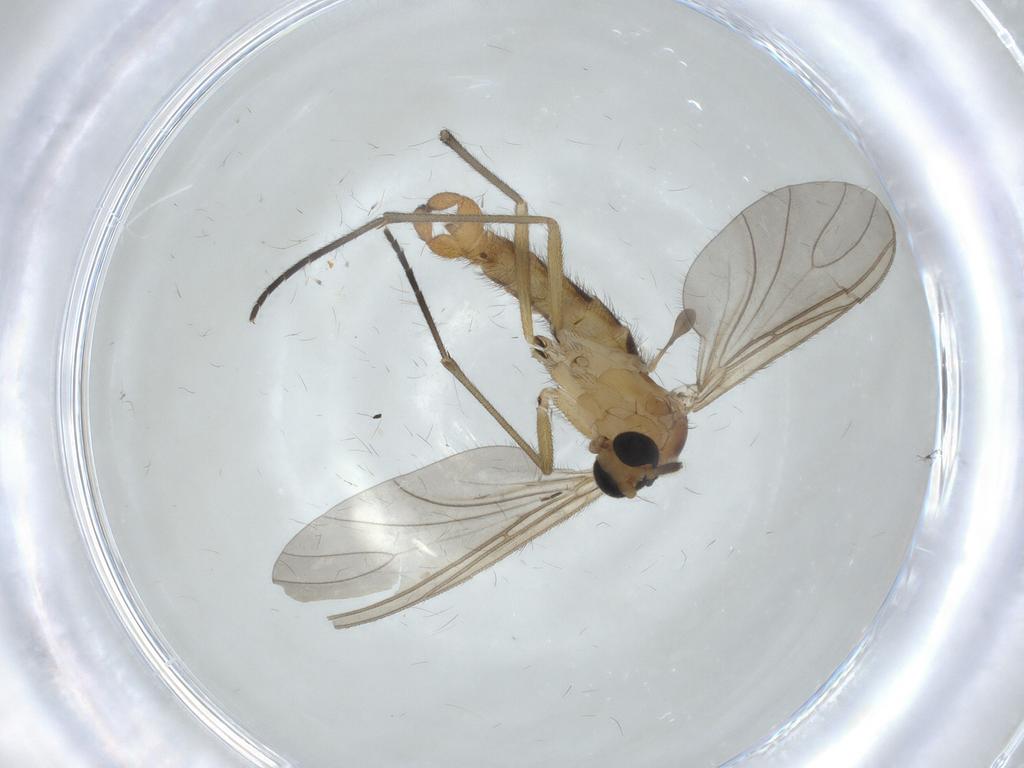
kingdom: Animalia
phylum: Arthropoda
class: Insecta
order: Diptera
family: Sciaridae
